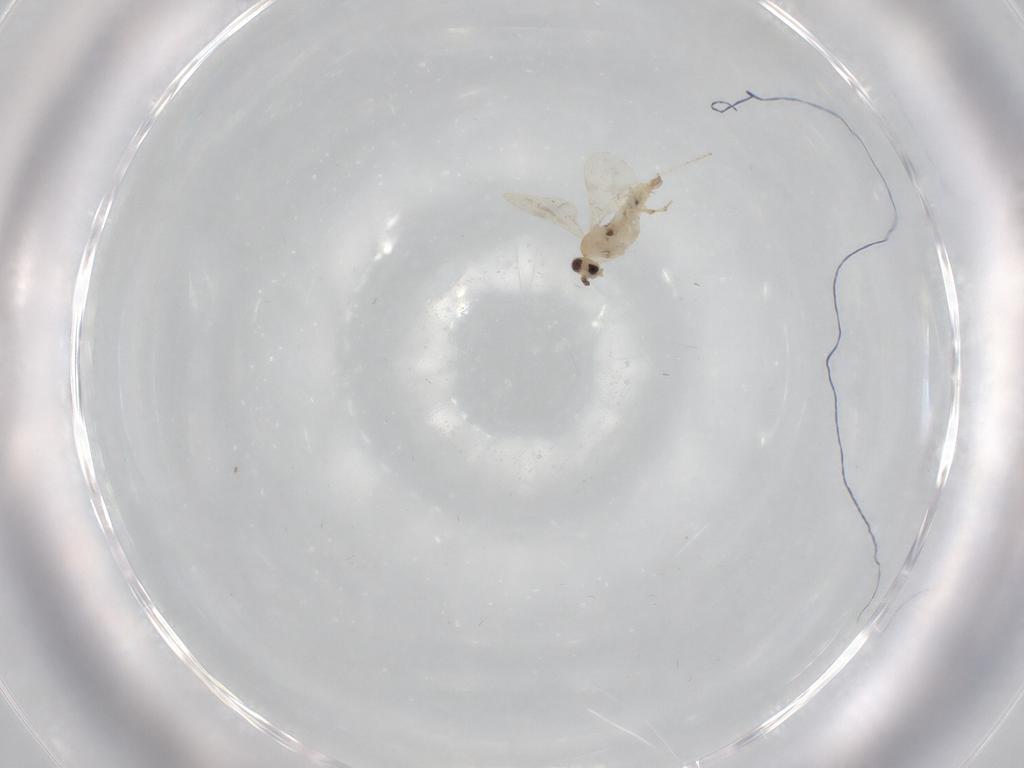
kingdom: Animalia
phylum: Arthropoda
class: Insecta
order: Diptera
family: Cecidomyiidae
